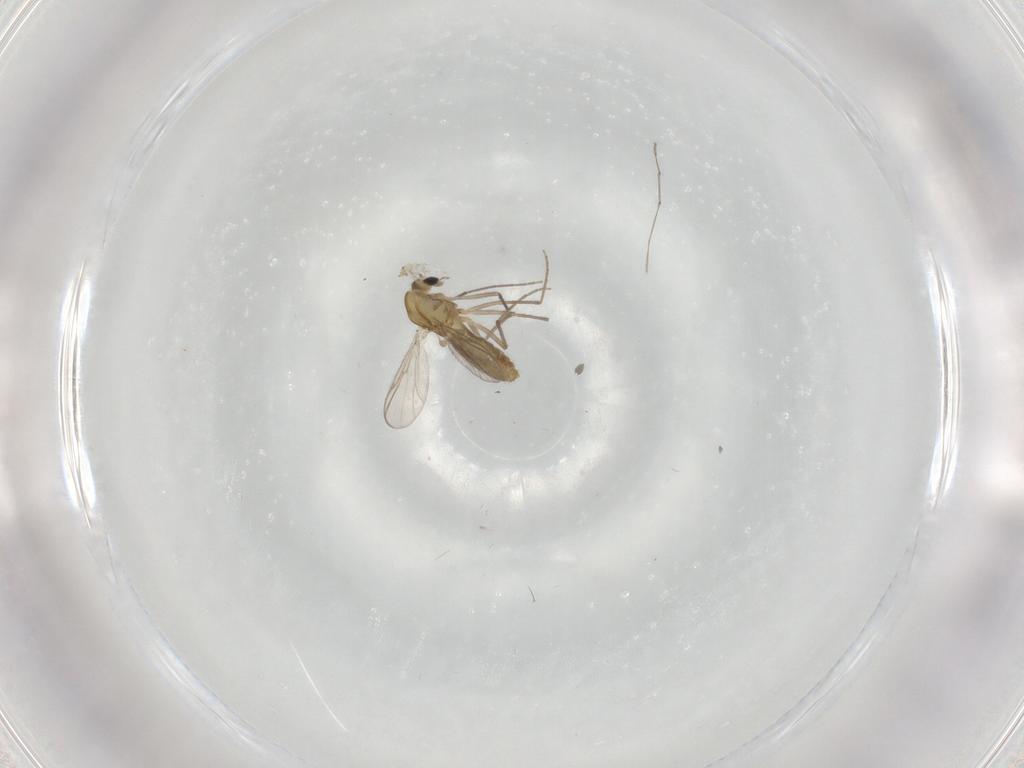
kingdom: Animalia
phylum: Arthropoda
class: Insecta
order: Diptera
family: Chironomidae
